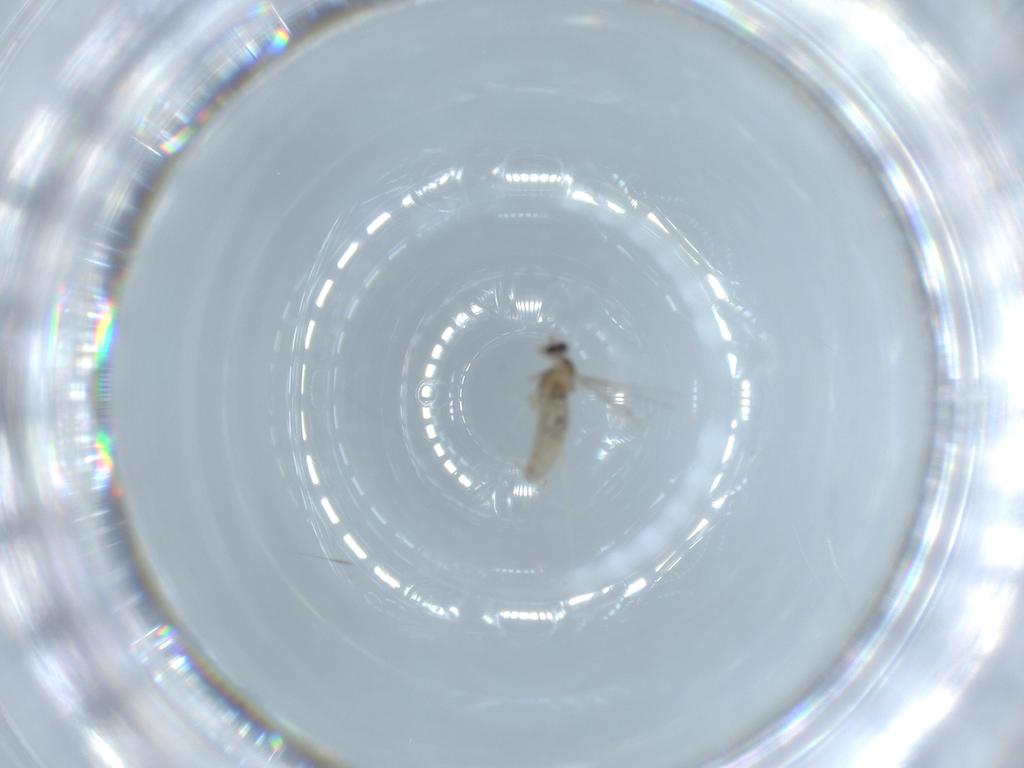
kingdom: Animalia
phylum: Arthropoda
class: Insecta
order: Diptera
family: Cecidomyiidae
